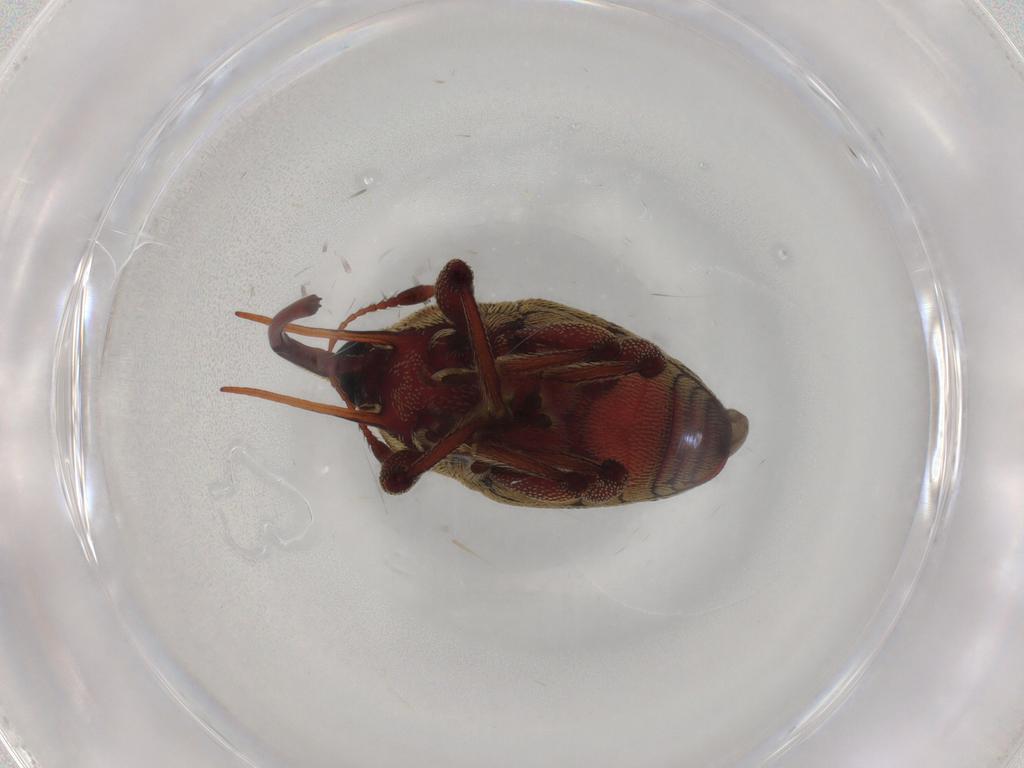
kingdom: Animalia
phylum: Arthropoda
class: Insecta
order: Coleoptera
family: Curculionidae
